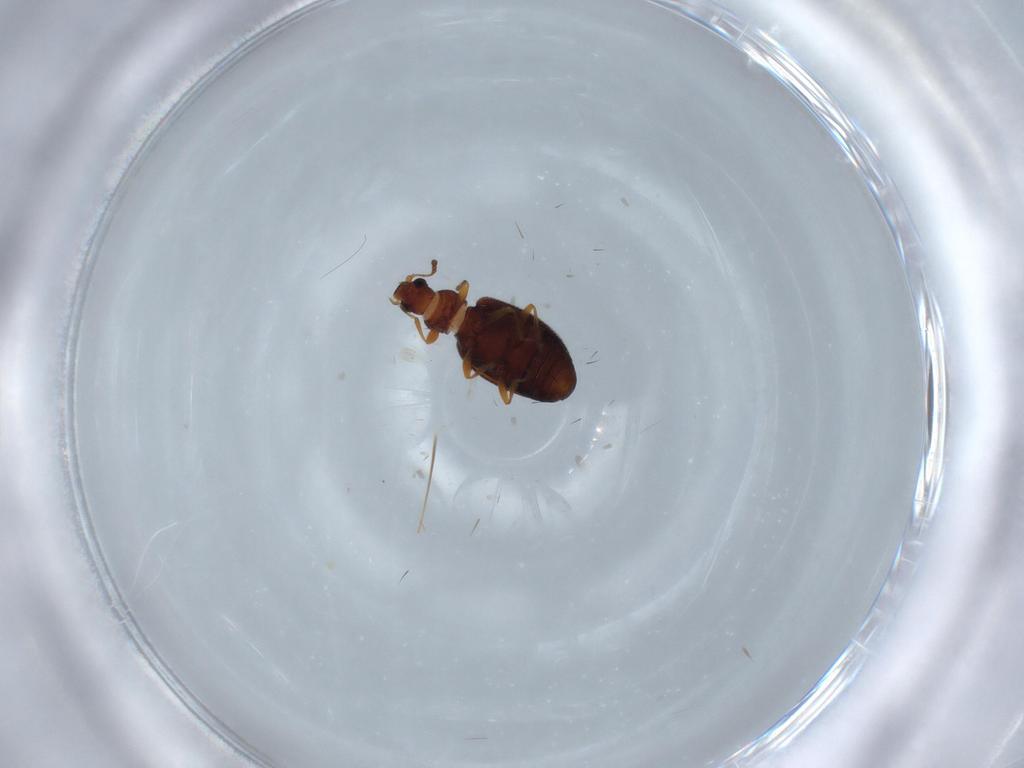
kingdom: Animalia
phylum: Arthropoda
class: Insecta
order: Coleoptera
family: Latridiidae
